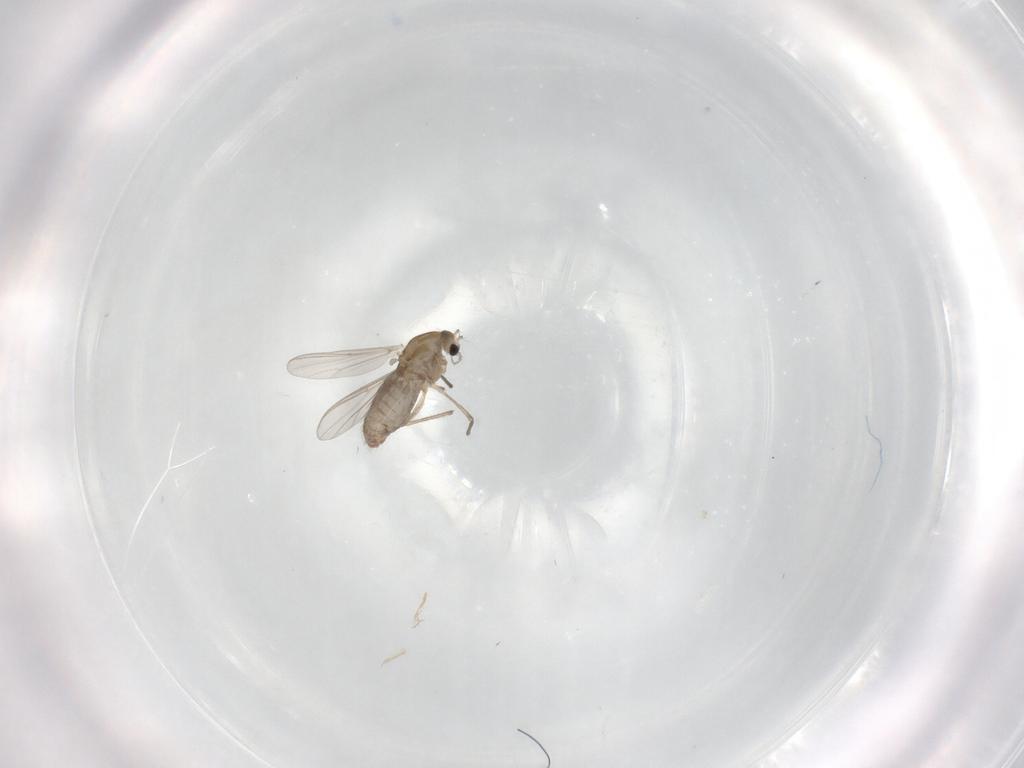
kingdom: Animalia
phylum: Arthropoda
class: Insecta
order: Diptera
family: Chironomidae
